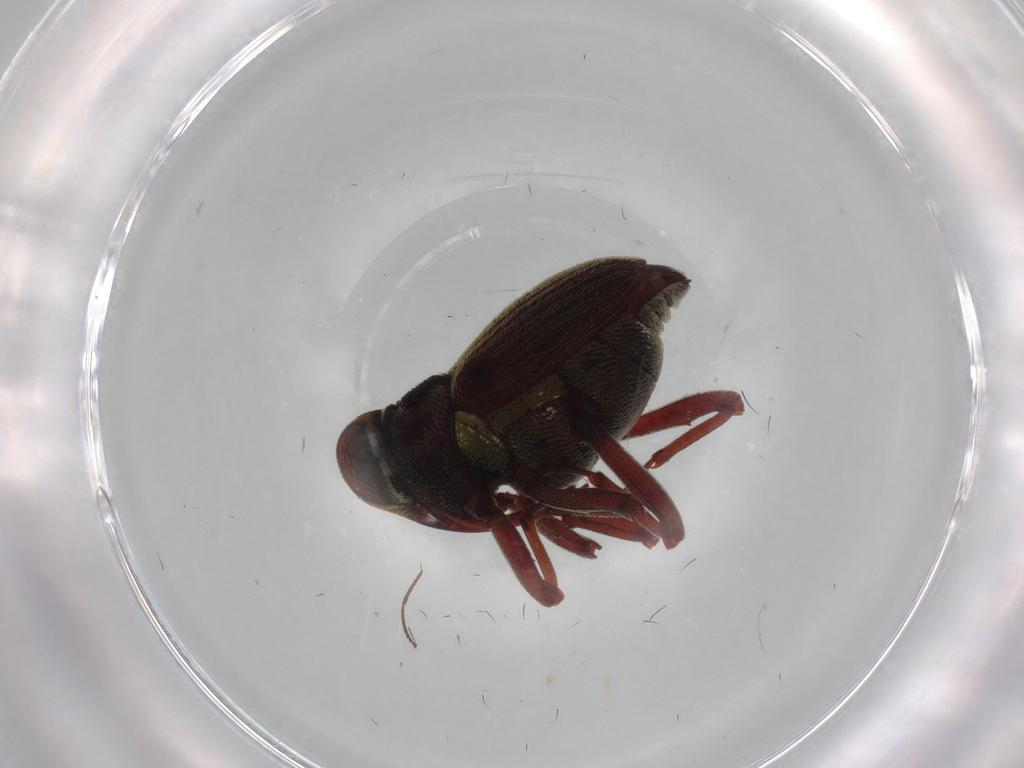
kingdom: Animalia
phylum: Arthropoda
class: Insecta
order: Coleoptera
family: Curculionidae
